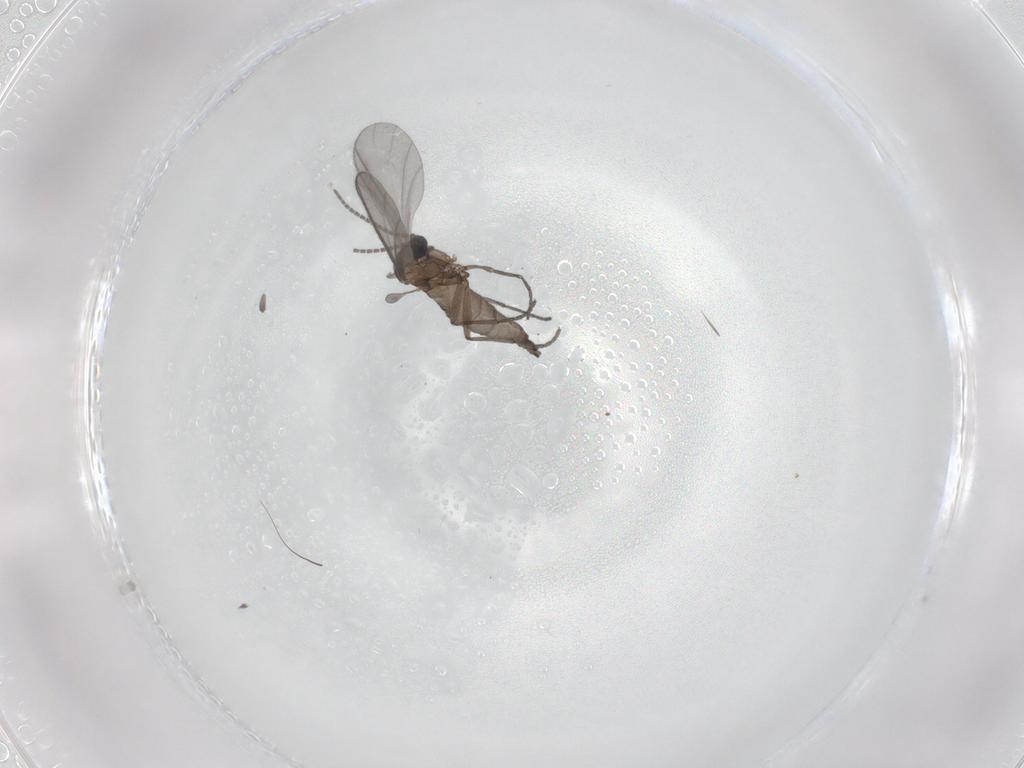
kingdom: Animalia
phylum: Arthropoda
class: Insecta
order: Diptera
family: Sciaridae
